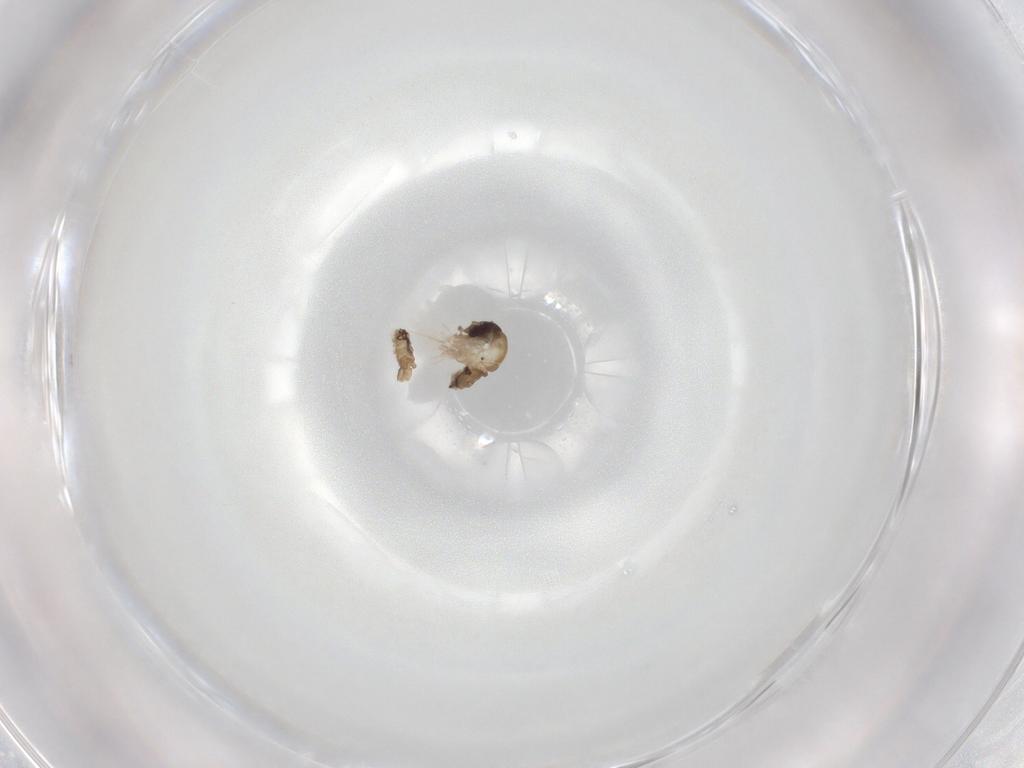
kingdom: Animalia
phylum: Arthropoda
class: Insecta
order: Diptera
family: Psychodidae
